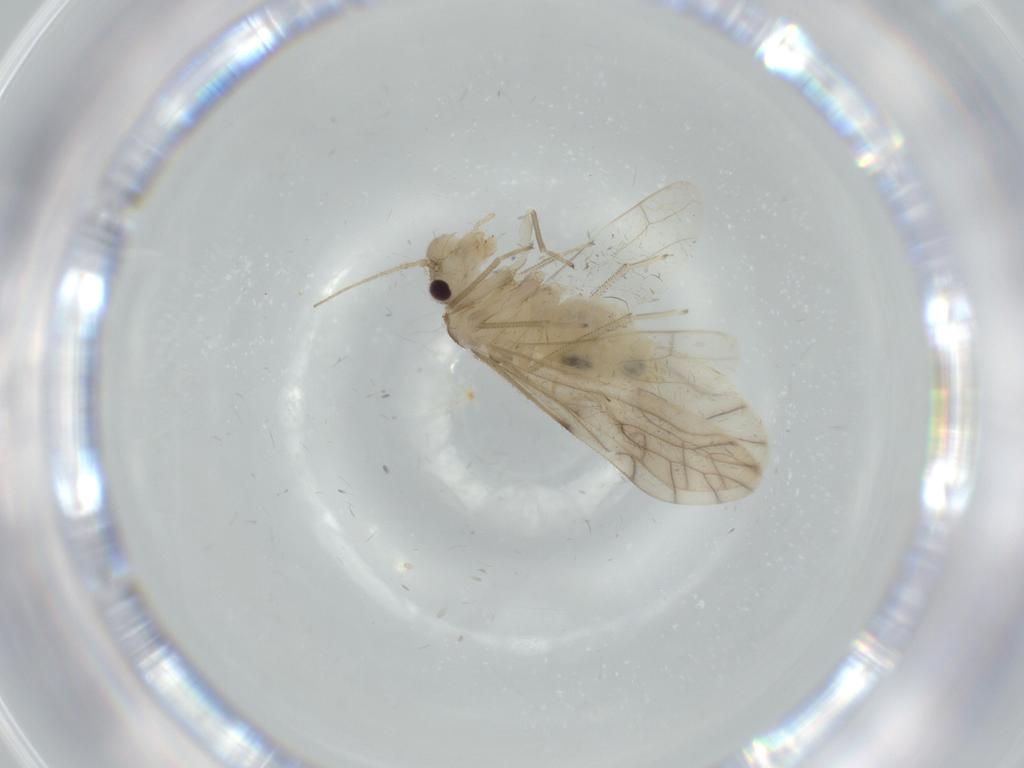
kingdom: Animalia
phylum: Arthropoda
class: Insecta
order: Psocodea
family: Caeciliusidae
